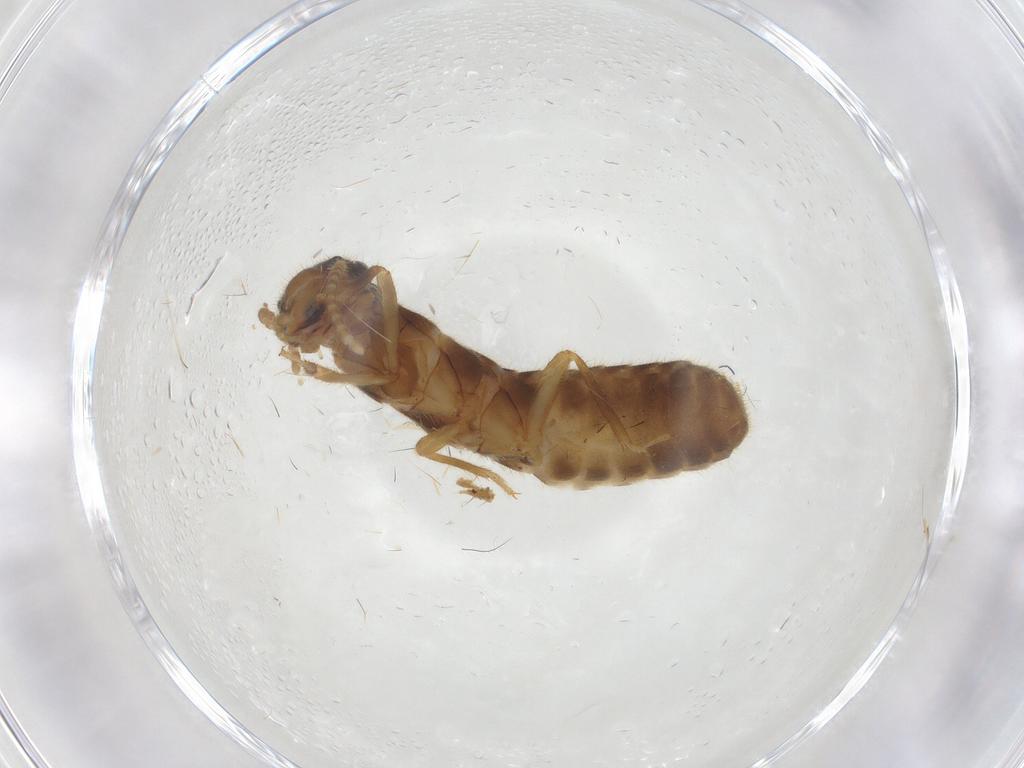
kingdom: Animalia
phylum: Arthropoda
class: Insecta
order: Blattodea
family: Ectobiidae
